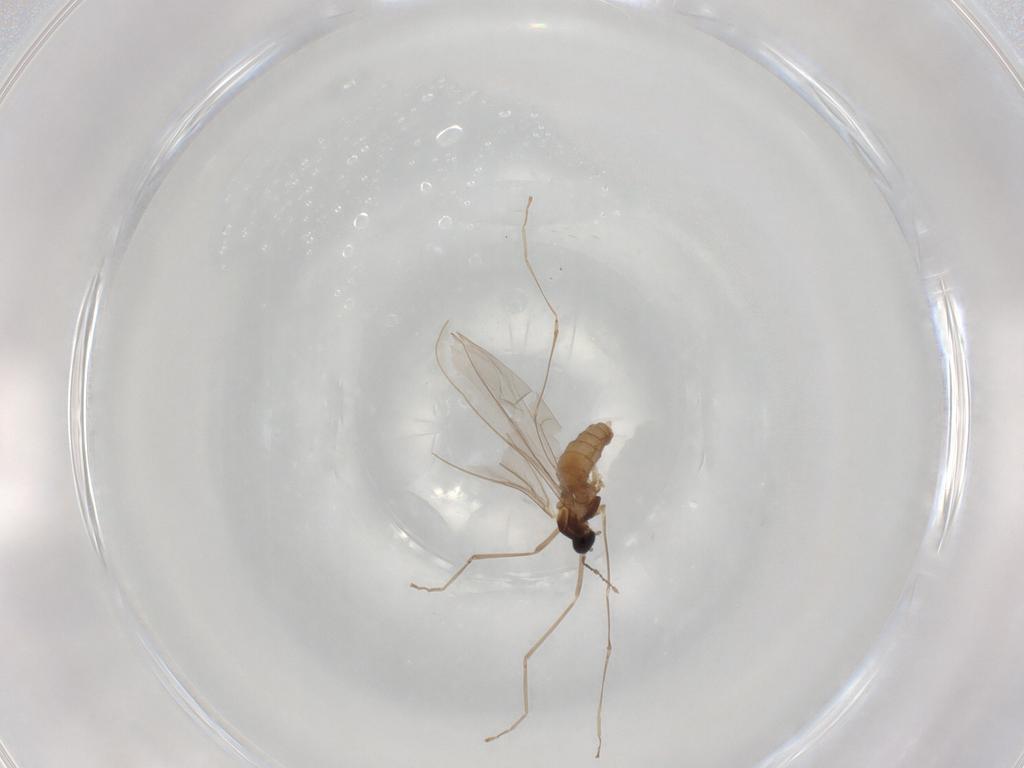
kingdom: Animalia
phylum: Arthropoda
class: Insecta
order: Diptera
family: Cecidomyiidae
